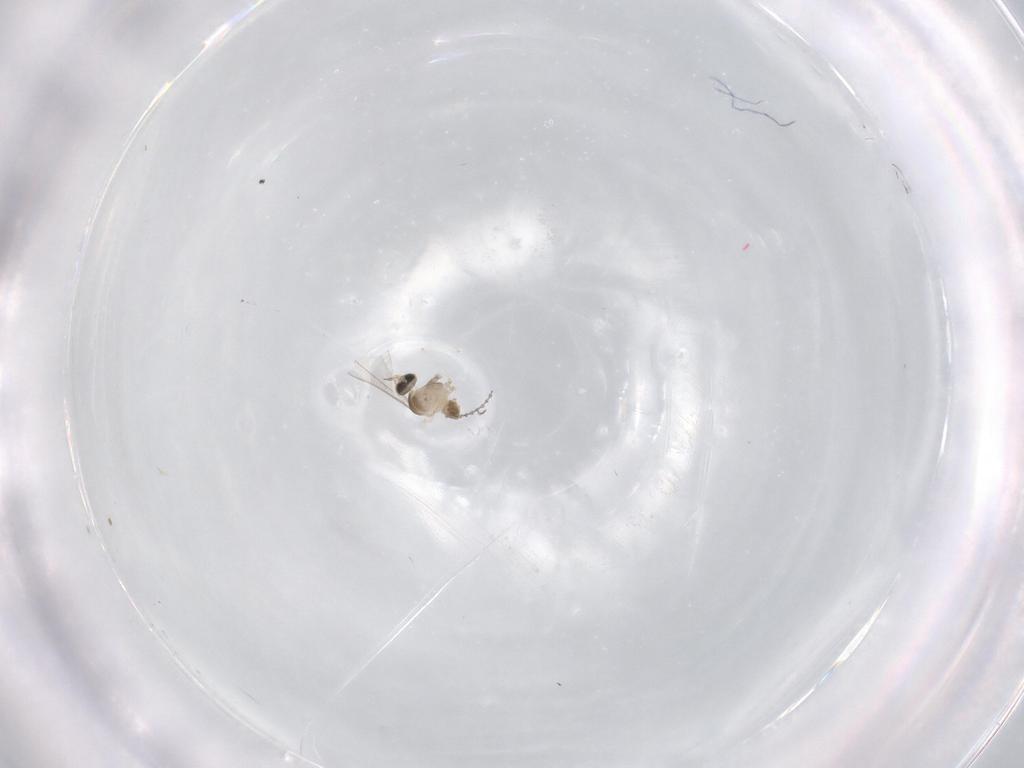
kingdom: Animalia
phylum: Arthropoda
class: Insecta
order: Diptera
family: Cecidomyiidae
